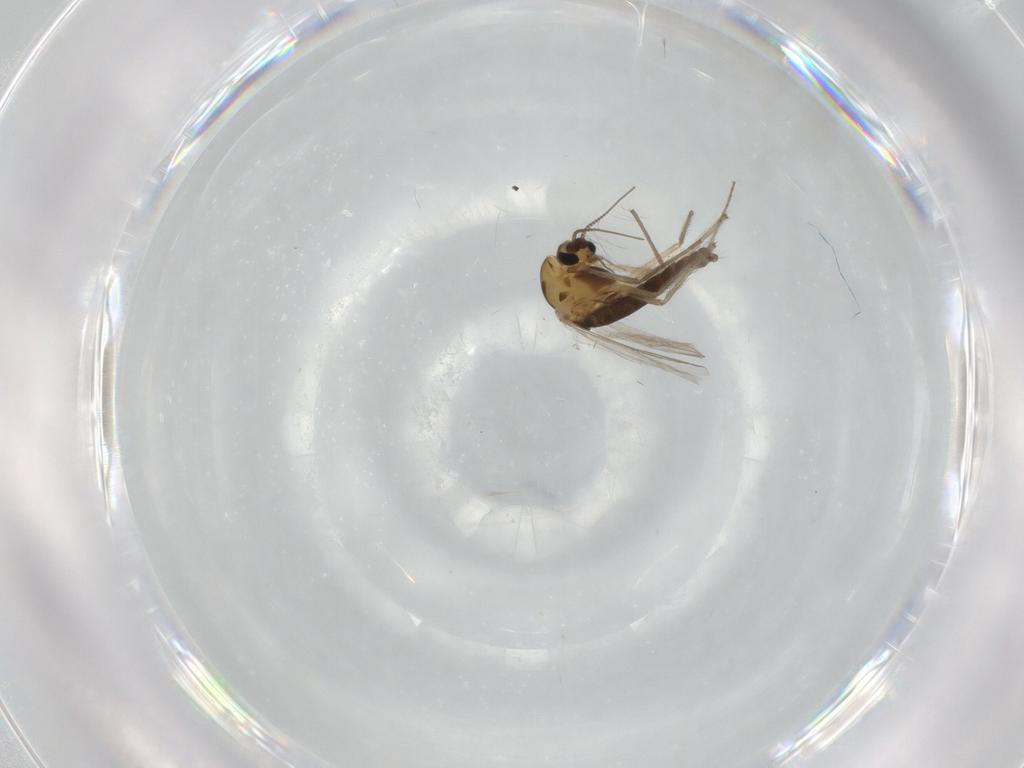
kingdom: Animalia
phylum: Arthropoda
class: Insecta
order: Diptera
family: Chironomidae
